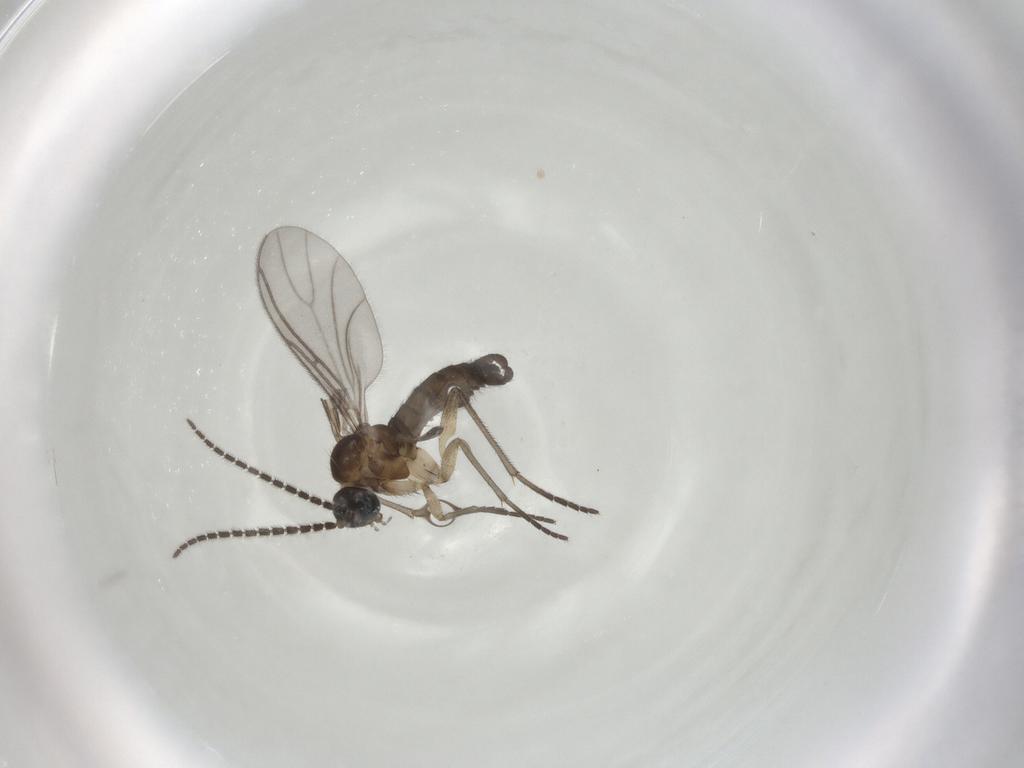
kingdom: Animalia
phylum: Arthropoda
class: Insecta
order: Diptera
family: Sciaridae
